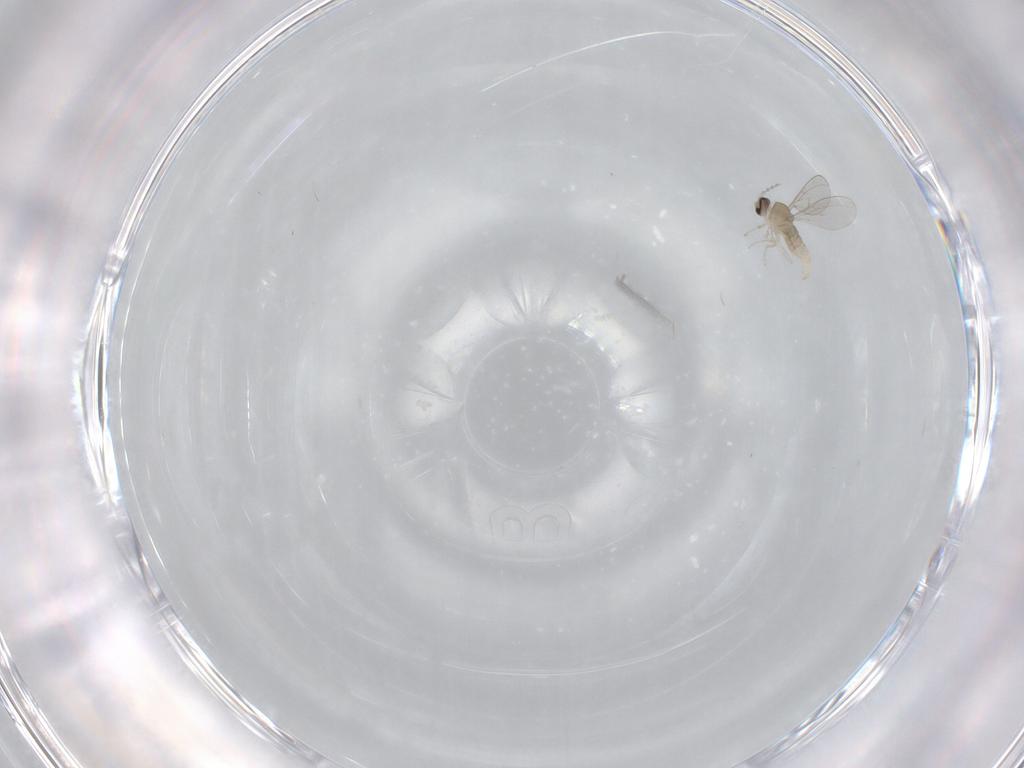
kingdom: Animalia
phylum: Arthropoda
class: Insecta
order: Diptera
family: Cecidomyiidae
